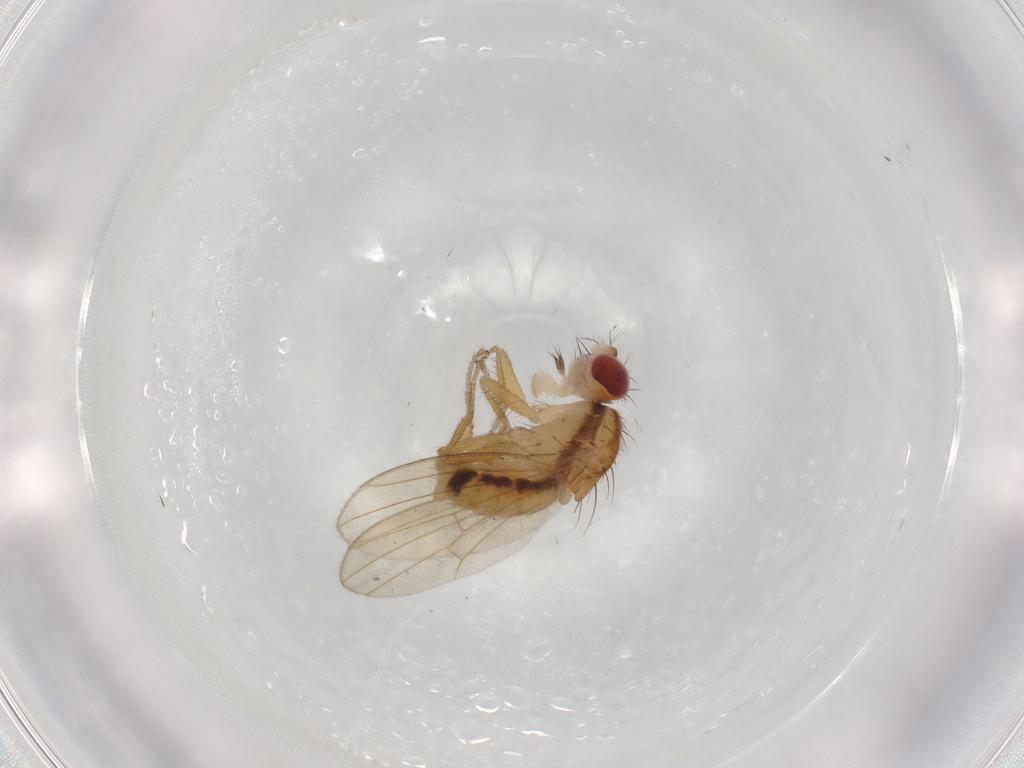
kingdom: Animalia
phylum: Arthropoda
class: Insecta
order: Diptera
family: Drosophilidae
